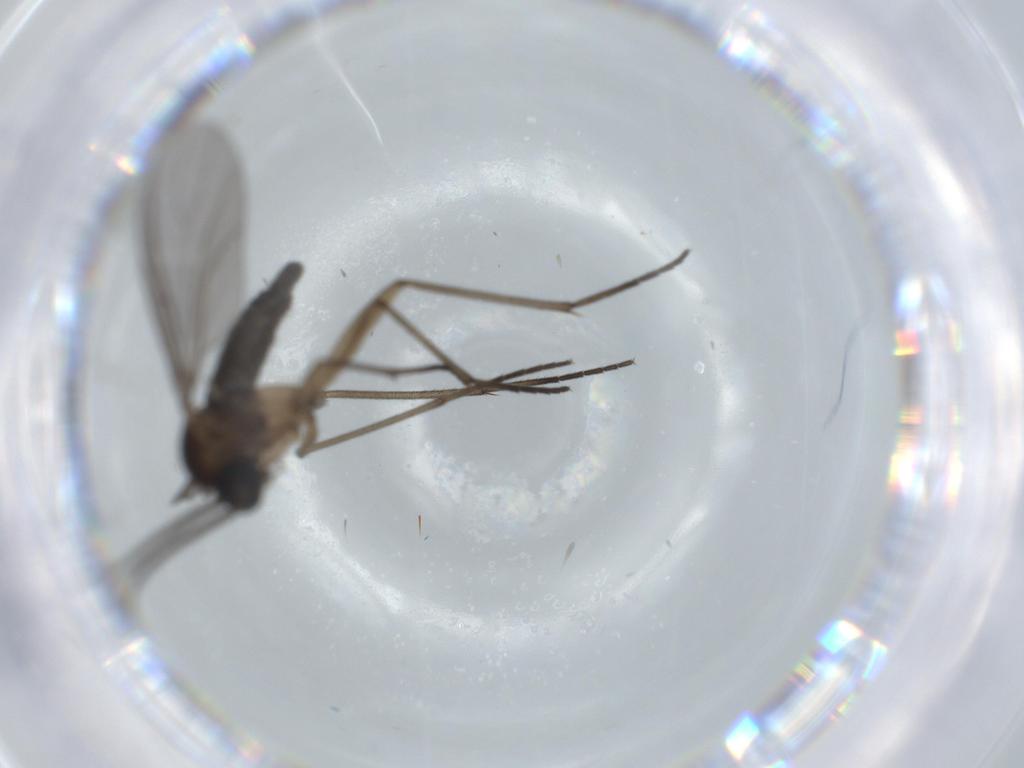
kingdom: Animalia
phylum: Arthropoda
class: Insecta
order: Diptera
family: Sciaridae
